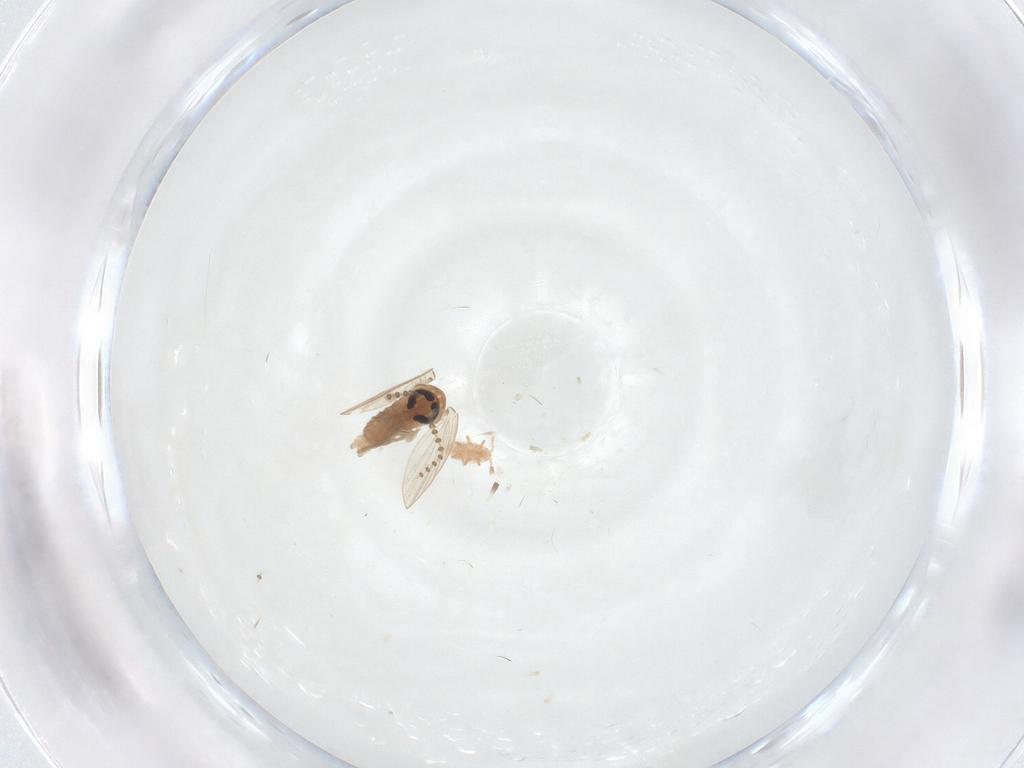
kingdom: Animalia
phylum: Arthropoda
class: Insecta
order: Diptera
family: Psychodidae
